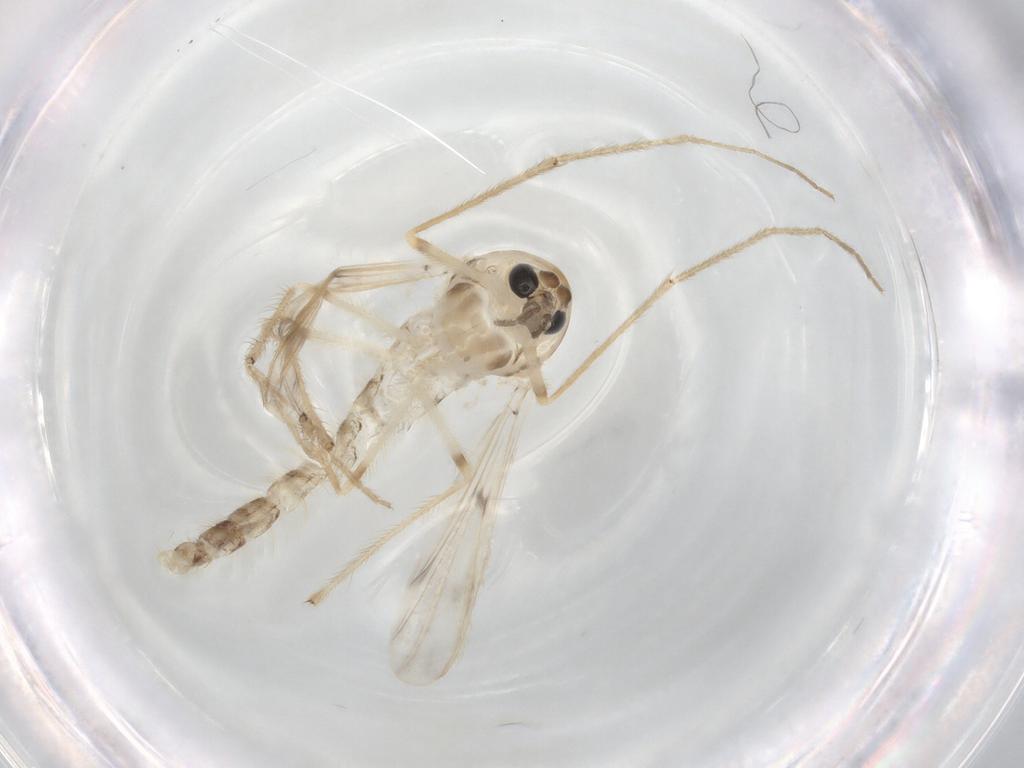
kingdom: Animalia
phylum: Arthropoda
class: Insecta
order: Diptera
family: Chironomidae
